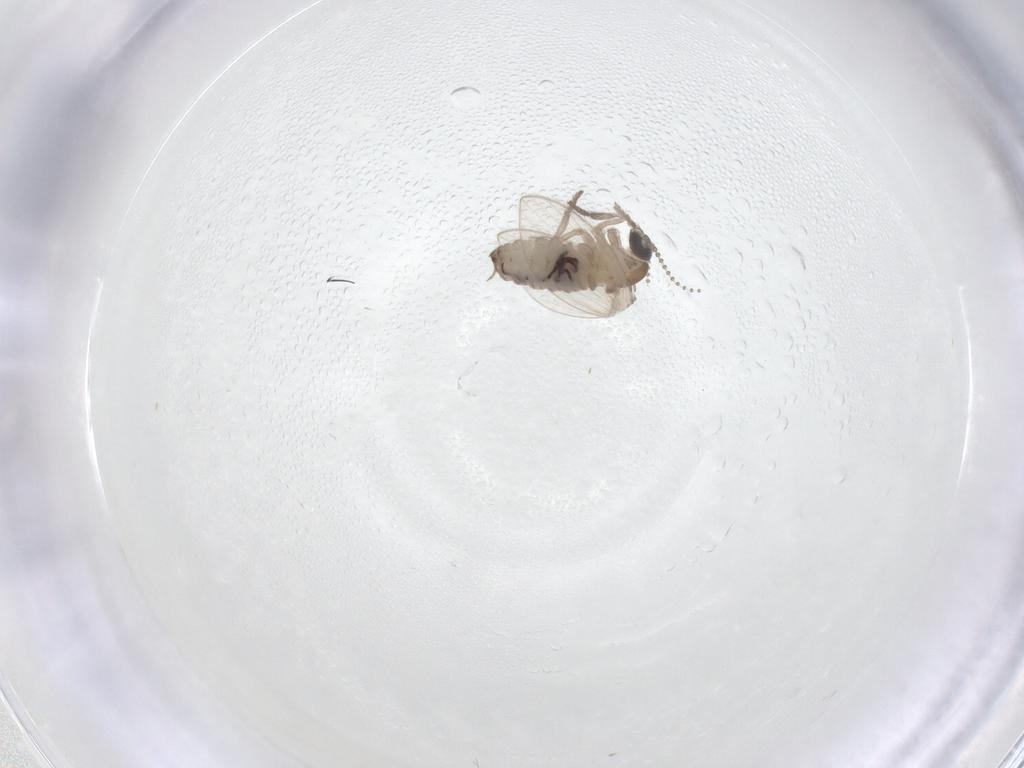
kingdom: Animalia
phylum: Arthropoda
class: Insecta
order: Diptera
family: Psychodidae
